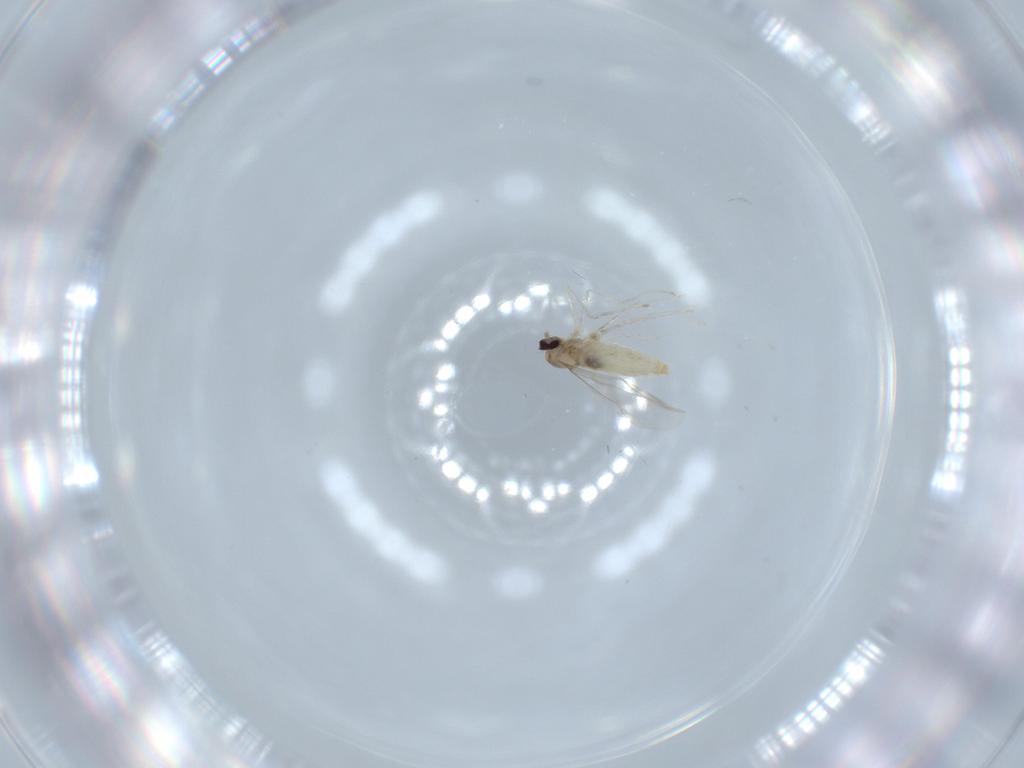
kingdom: Animalia
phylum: Arthropoda
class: Insecta
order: Diptera
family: Cecidomyiidae
